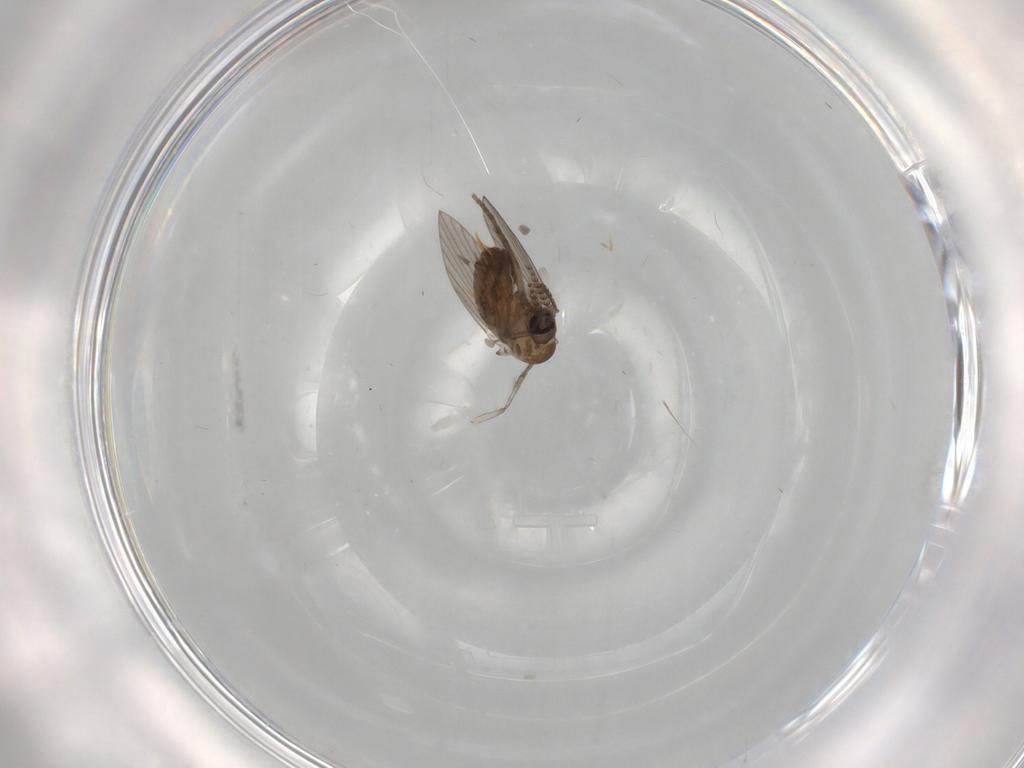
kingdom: Animalia
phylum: Arthropoda
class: Insecta
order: Diptera
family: Psychodidae
